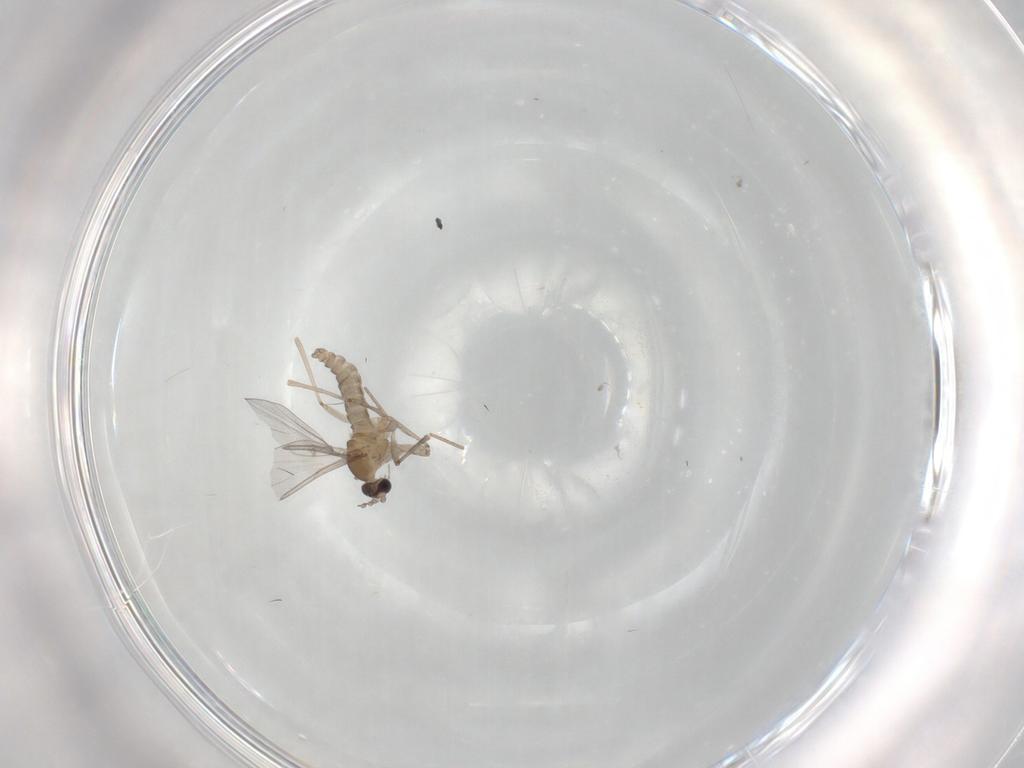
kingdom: Animalia
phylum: Arthropoda
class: Insecta
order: Diptera
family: Tachinidae
